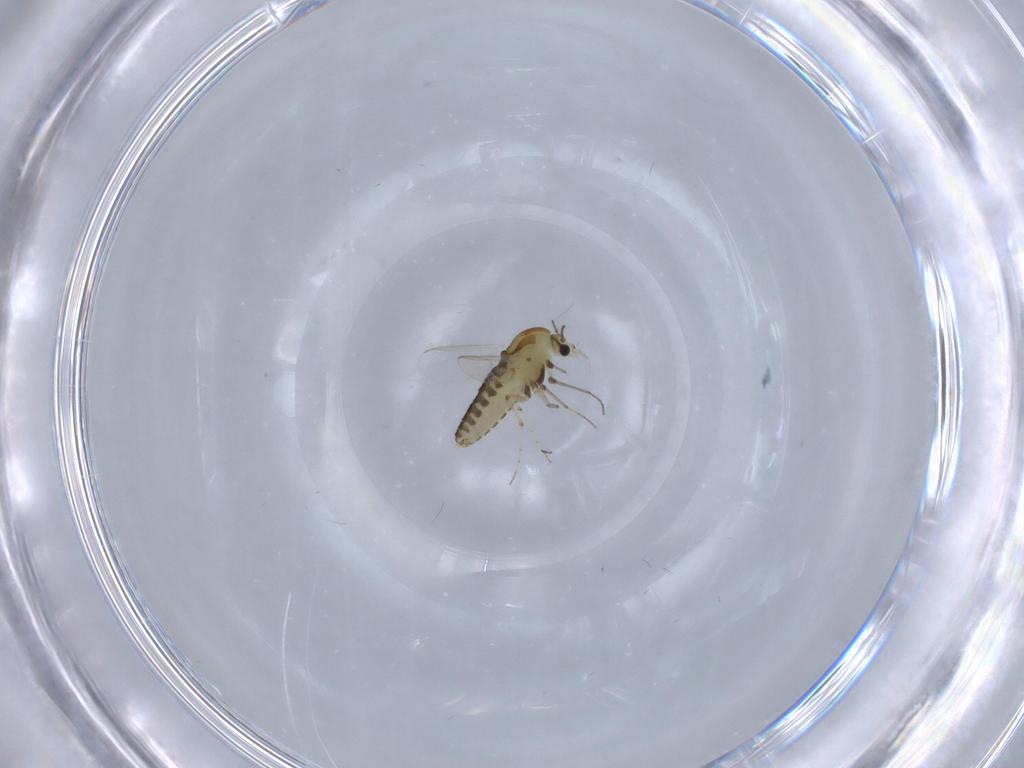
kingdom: Animalia
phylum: Arthropoda
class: Insecta
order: Diptera
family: Chironomidae
